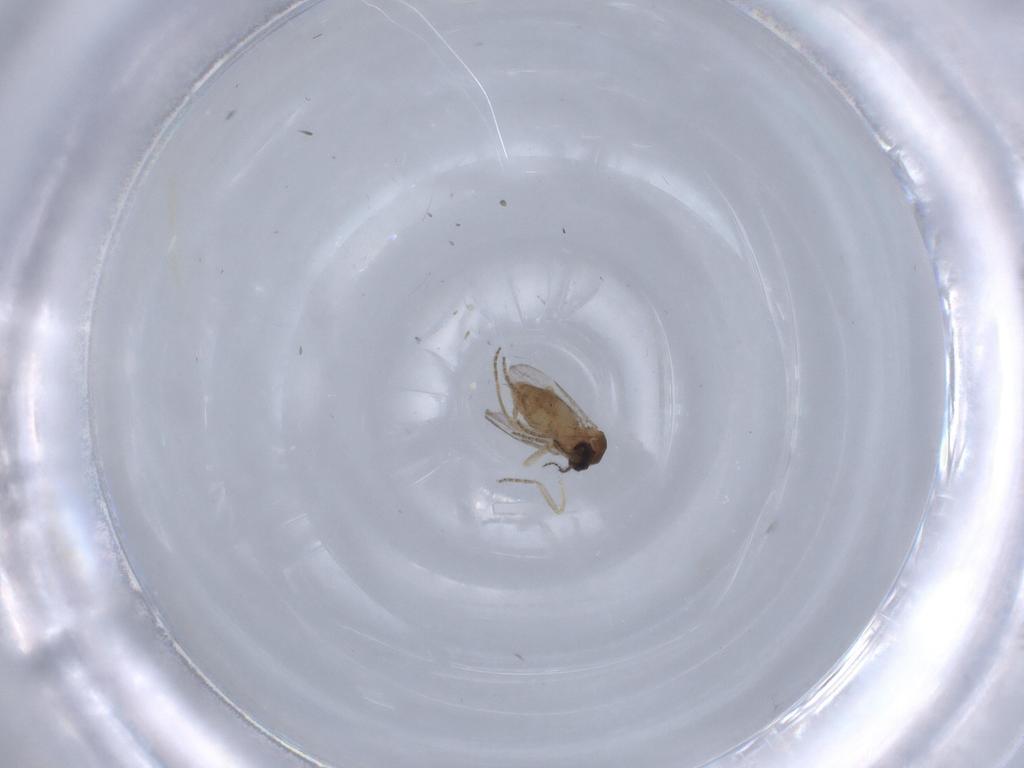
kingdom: Animalia
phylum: Arthropoda
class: Insecta
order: Diptera
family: Ceratopogonidae
